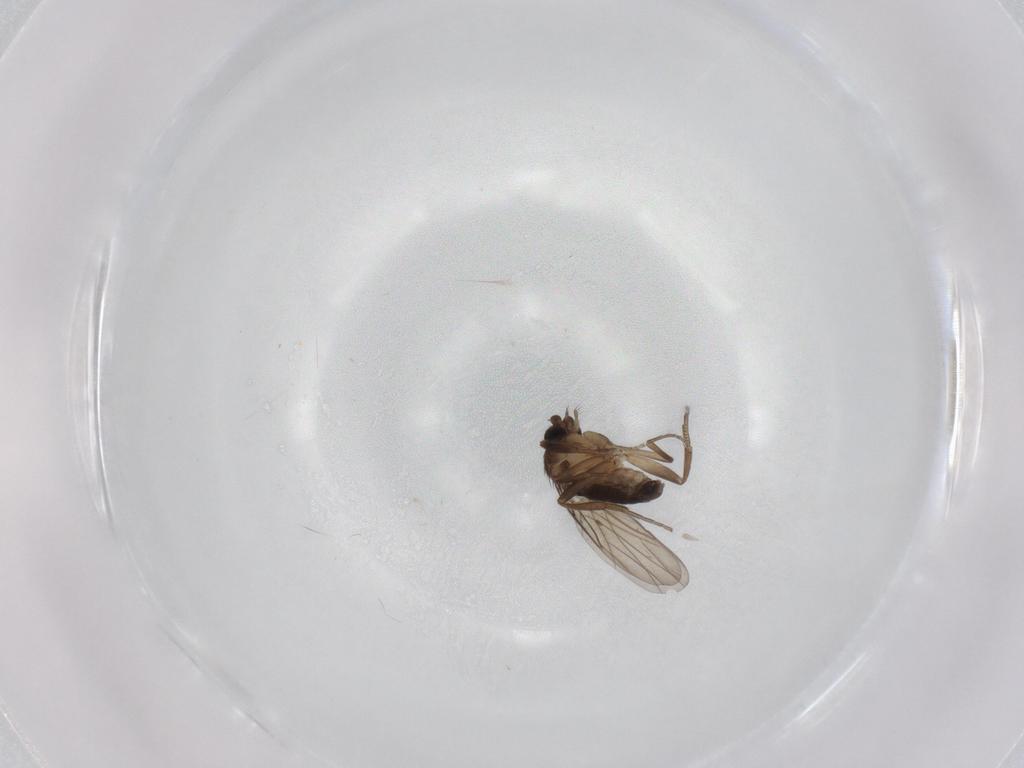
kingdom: Animalia
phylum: Arthropoda
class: Insecta
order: Diptera
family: Phoridae
